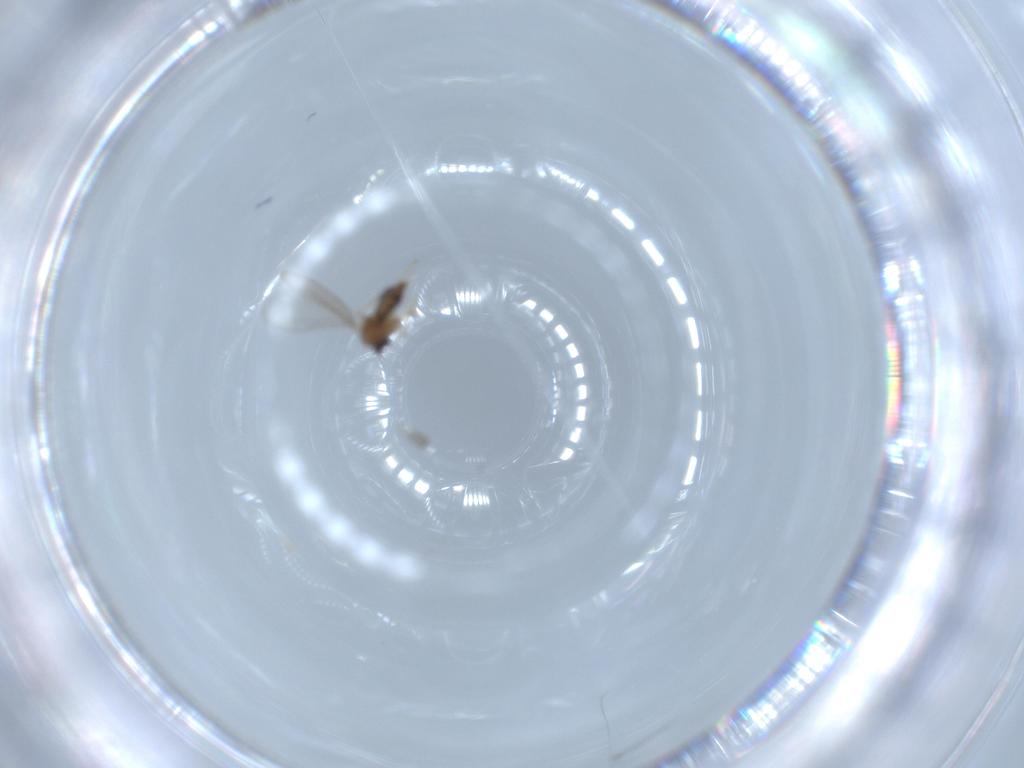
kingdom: Animalia
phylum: Arthropoda
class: Insecta
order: Diptera
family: Cecidomyiidae
